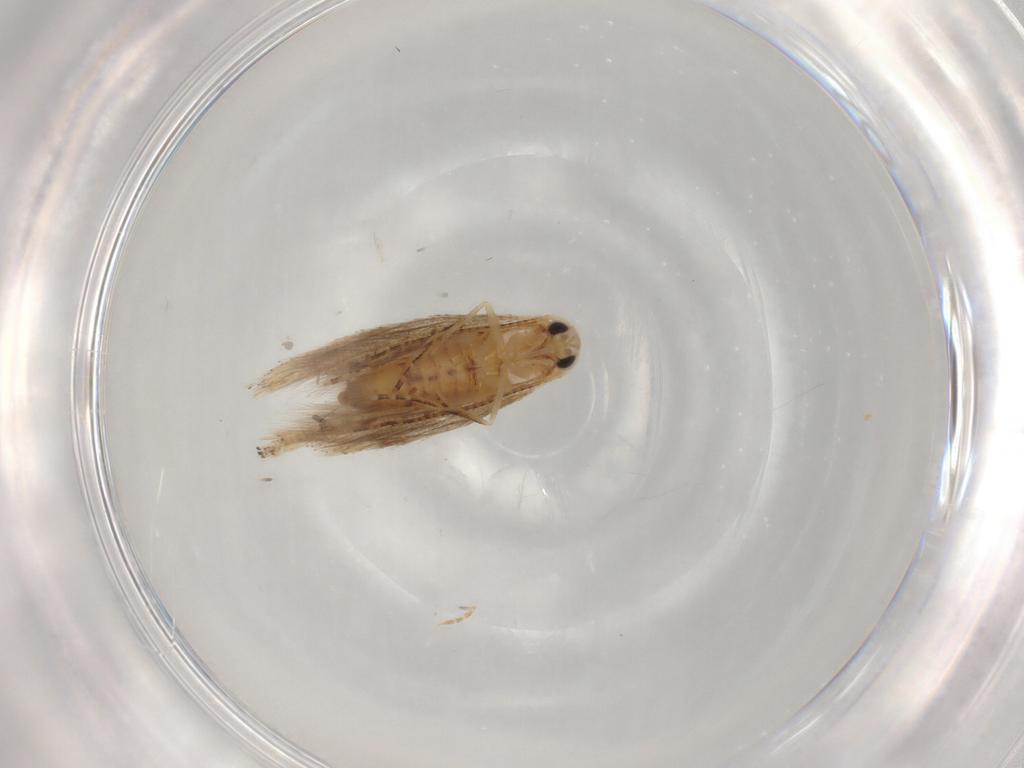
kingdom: Animalia
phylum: Arthropoda
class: Insecta
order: Lepidoptera
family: Bucculatricidae
